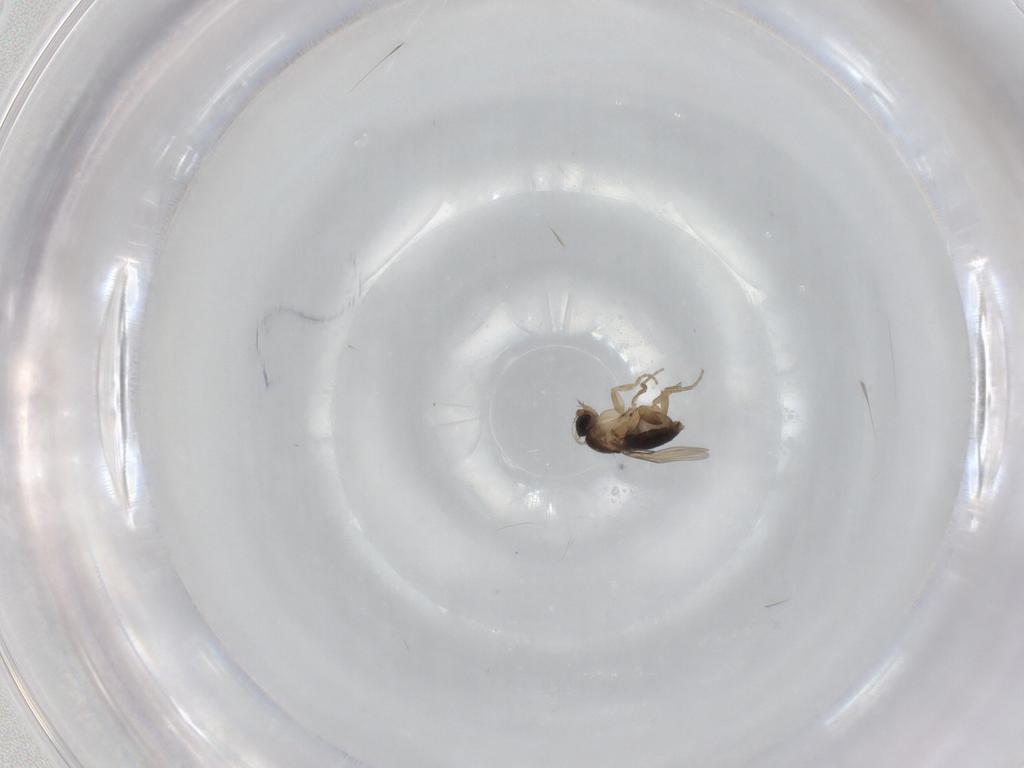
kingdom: Animalia
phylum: Arthropoda
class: Insecta
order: Diptera
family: Phoridae
